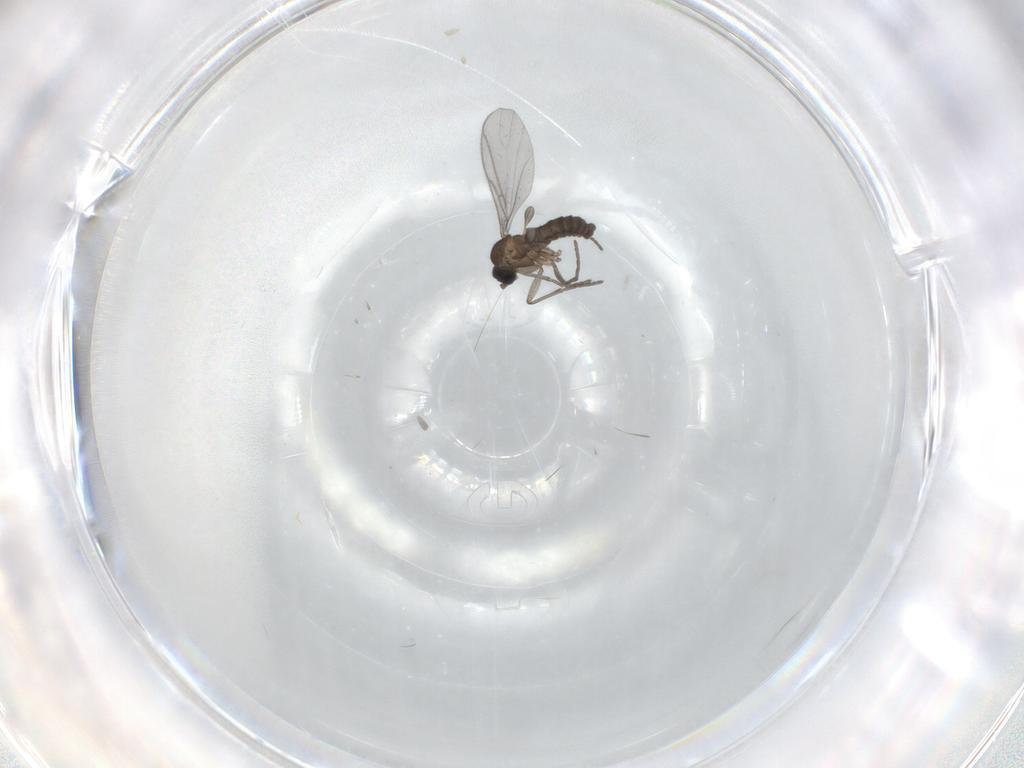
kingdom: Animalia
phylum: Arthropoda
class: Insecta
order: Diptera
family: Sciaridae
